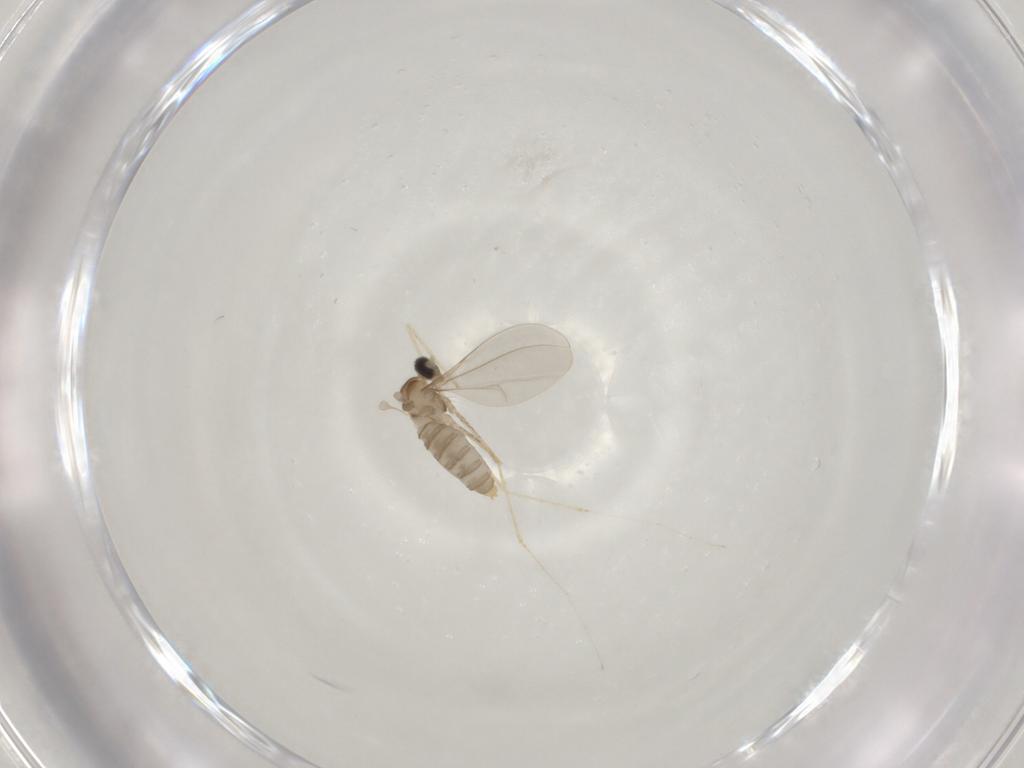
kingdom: Animalia
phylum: Arthropoda
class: Insecta
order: Diptera
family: Cecidomyiidae
